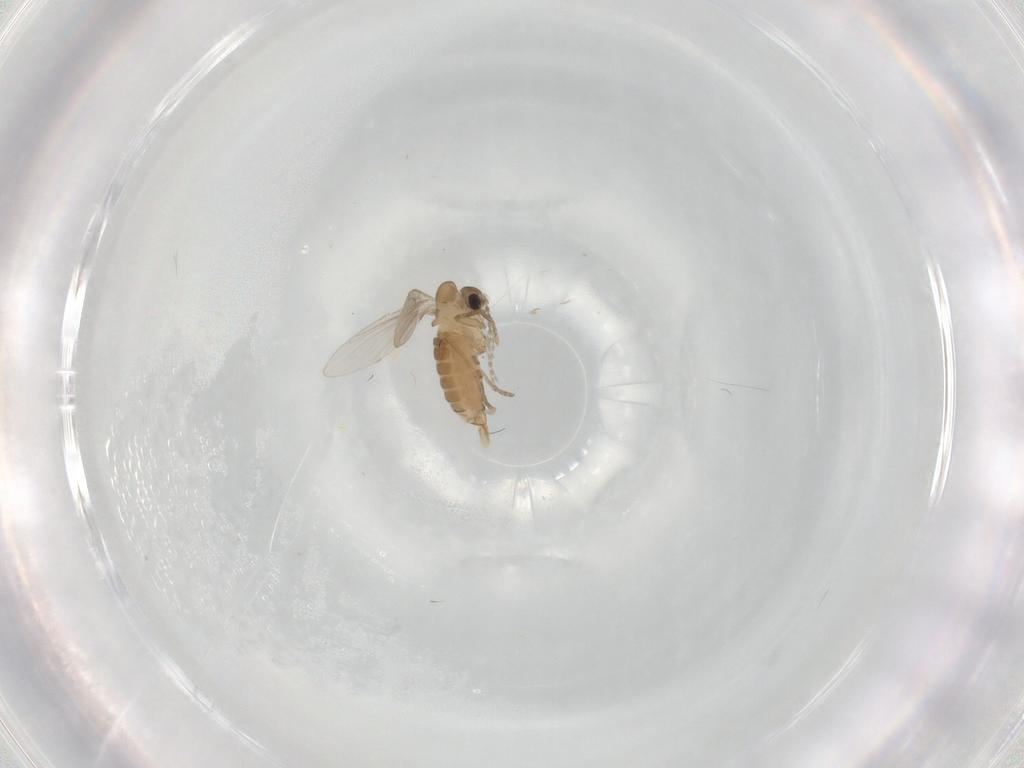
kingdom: Animalia
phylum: Arthropoda
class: Insecta
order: Diptera
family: Psychodidae
